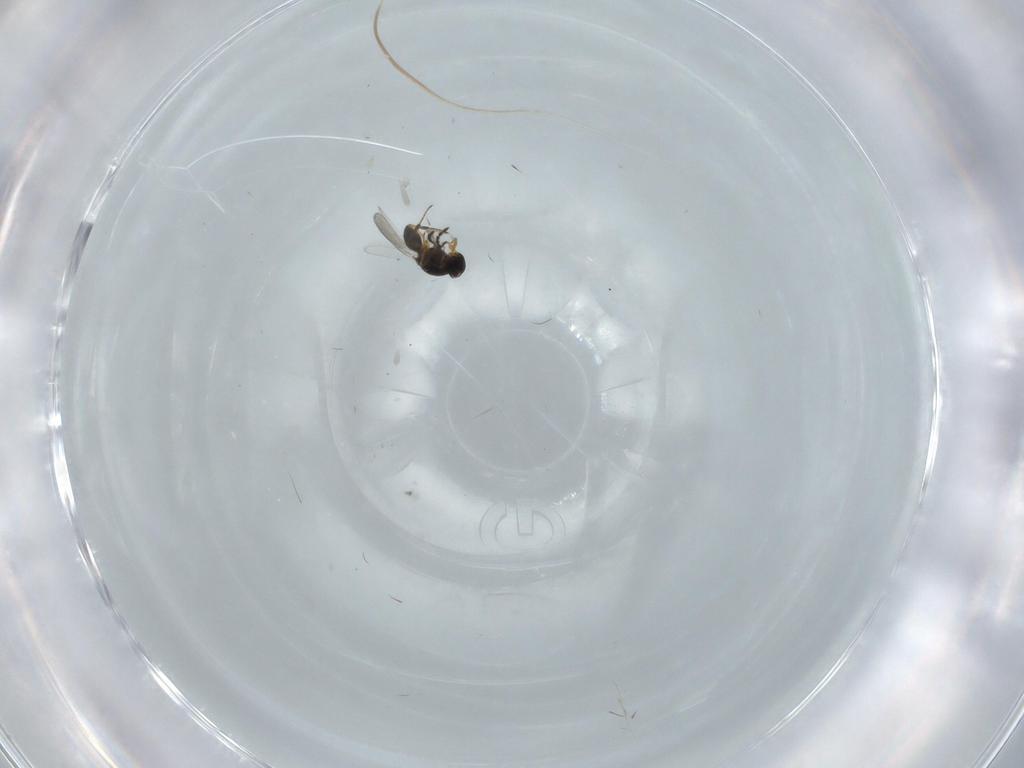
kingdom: Animalia
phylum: Arthropoda
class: Insecta
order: Hymenoptera
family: Platygastridae
